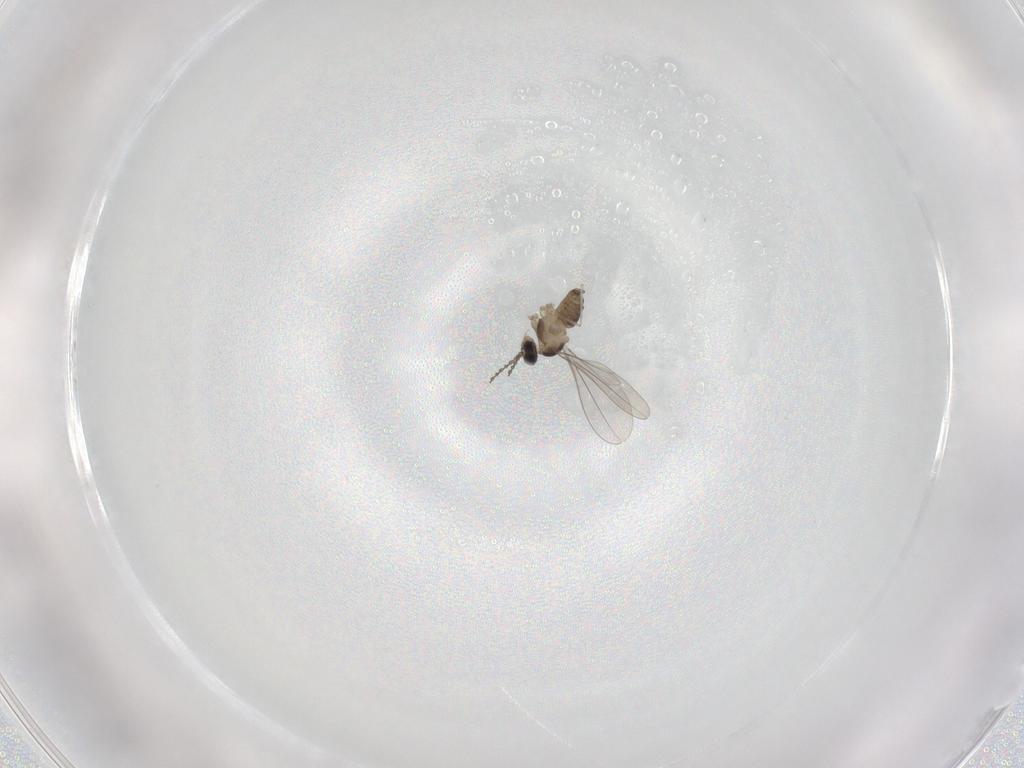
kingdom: Animalia
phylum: Arthropoda
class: Insecta
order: Diptera
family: Cecidomyiidae
